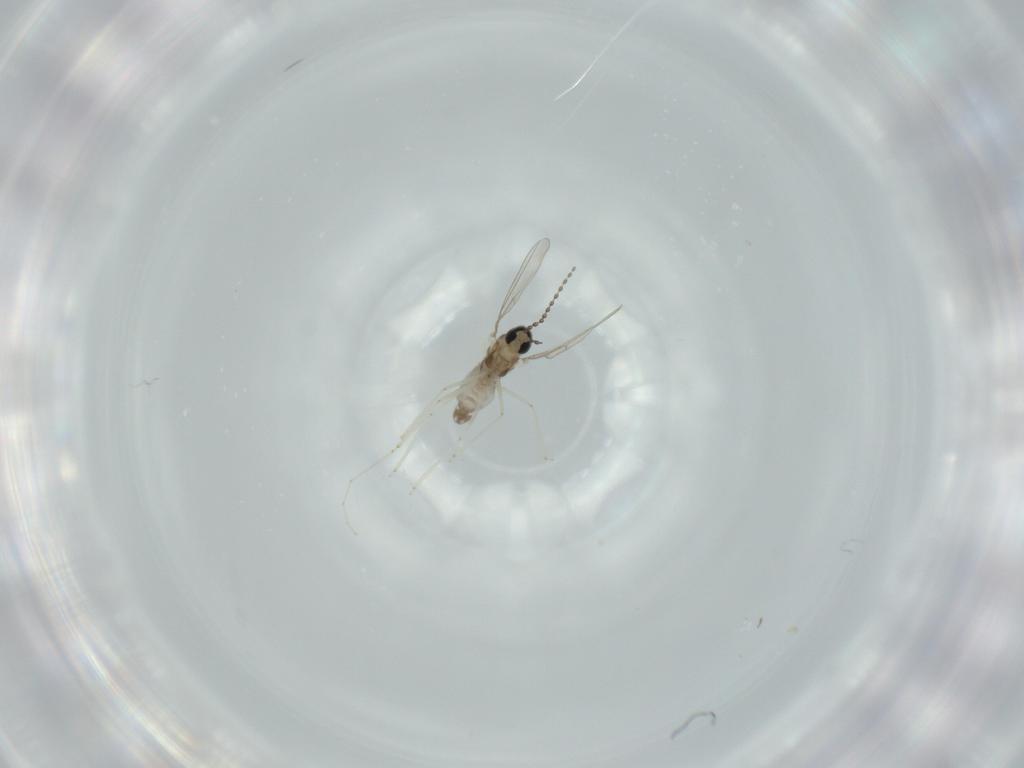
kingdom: Animalia
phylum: Arthropoda
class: Insecta
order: Diptera
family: Cecidomyiidae
